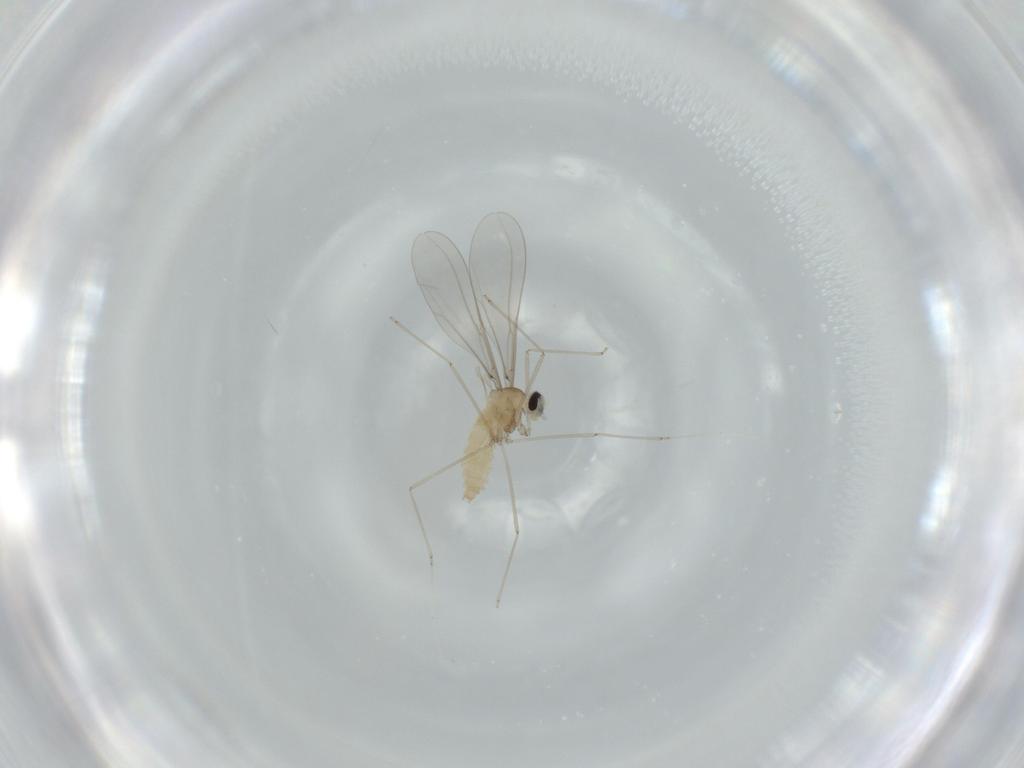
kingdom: Animalia
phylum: Arthropoda
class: Insecta
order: Diptera
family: Cecidomyiidae
